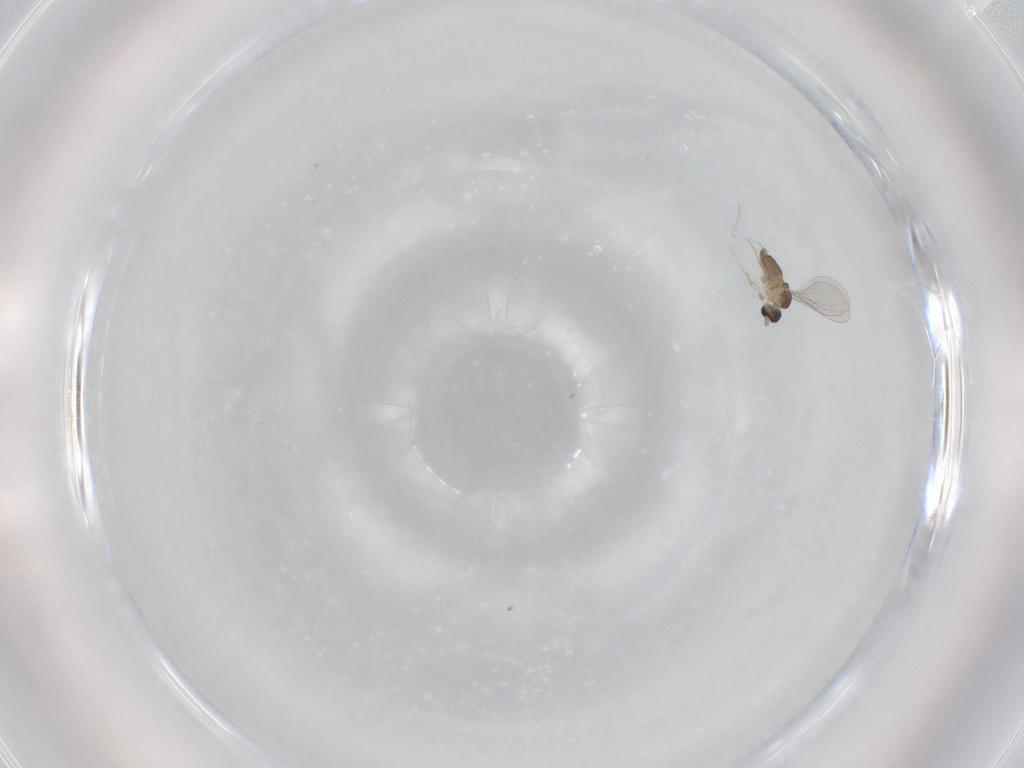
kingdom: Animalia
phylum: Arthropoda
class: Insecta
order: Diptera
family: Cecidomyiidae
